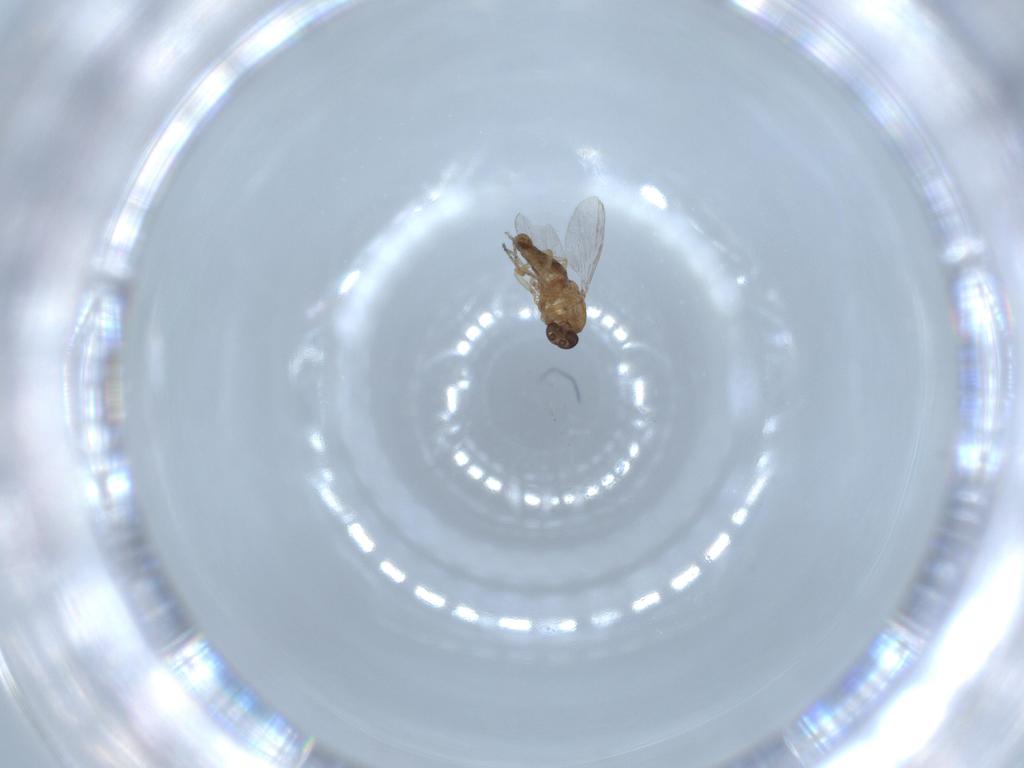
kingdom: Animalia
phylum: Arthropoda
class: Insecta
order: Diptera
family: Ceratopogonidae
